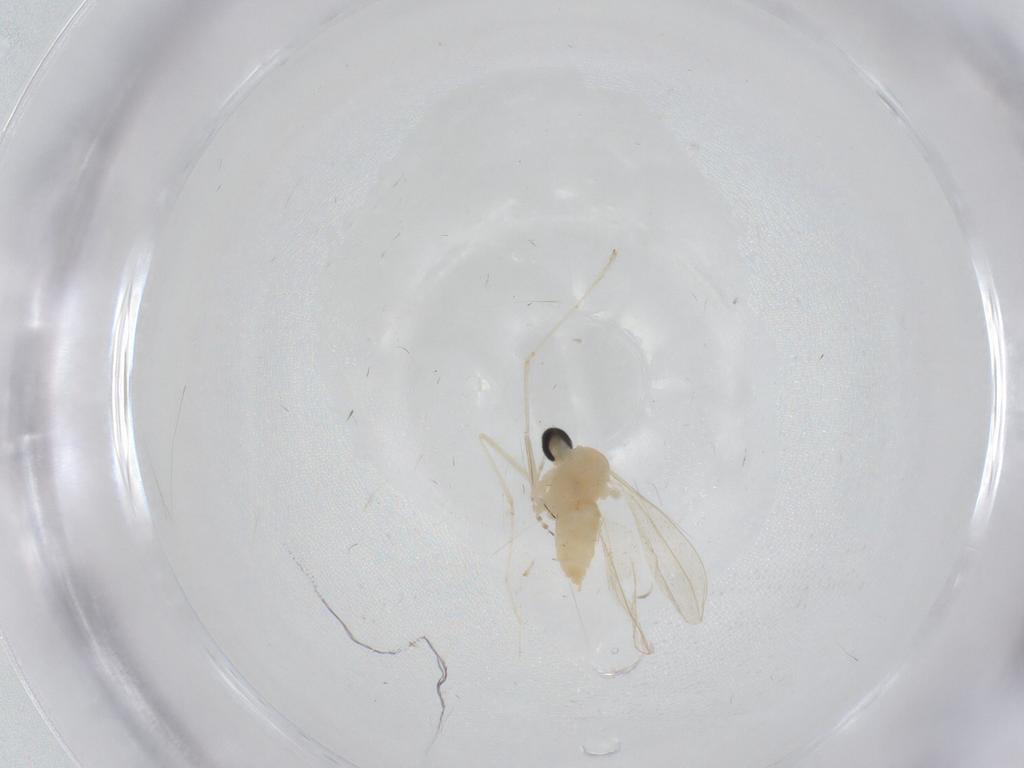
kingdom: Animalia
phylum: Arthropoda
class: Insecta
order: Diptera
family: Cecidomyiidae
